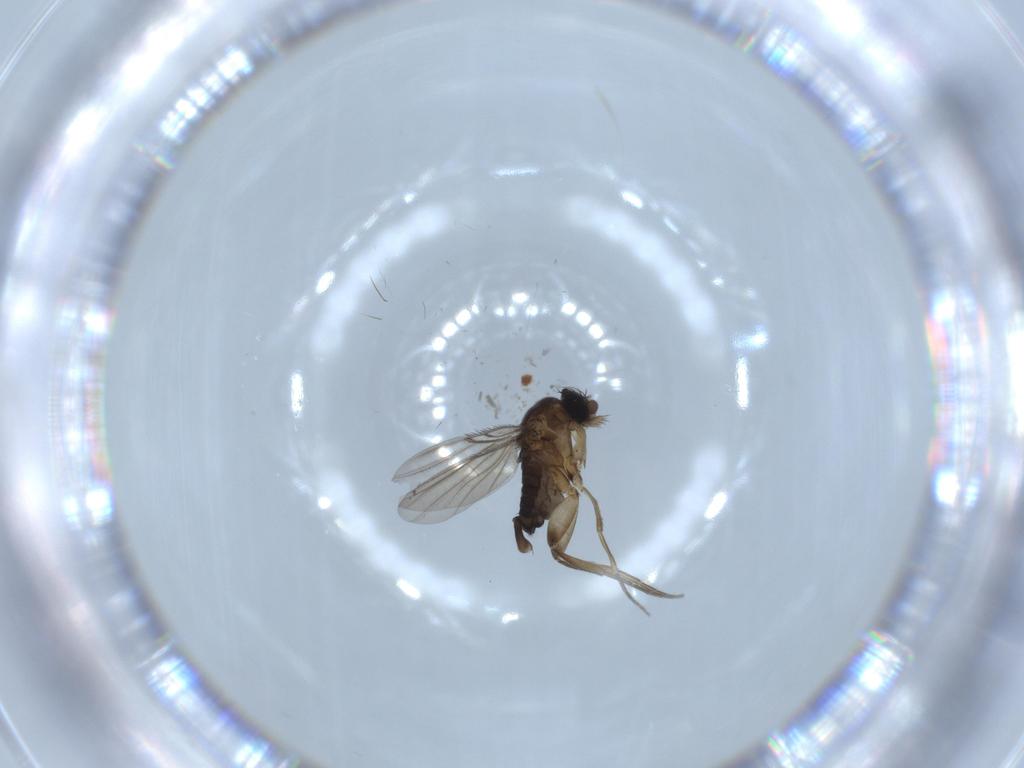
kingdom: Animalia
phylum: Arthropoda
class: Insecta
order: Diptera
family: Phoridae
